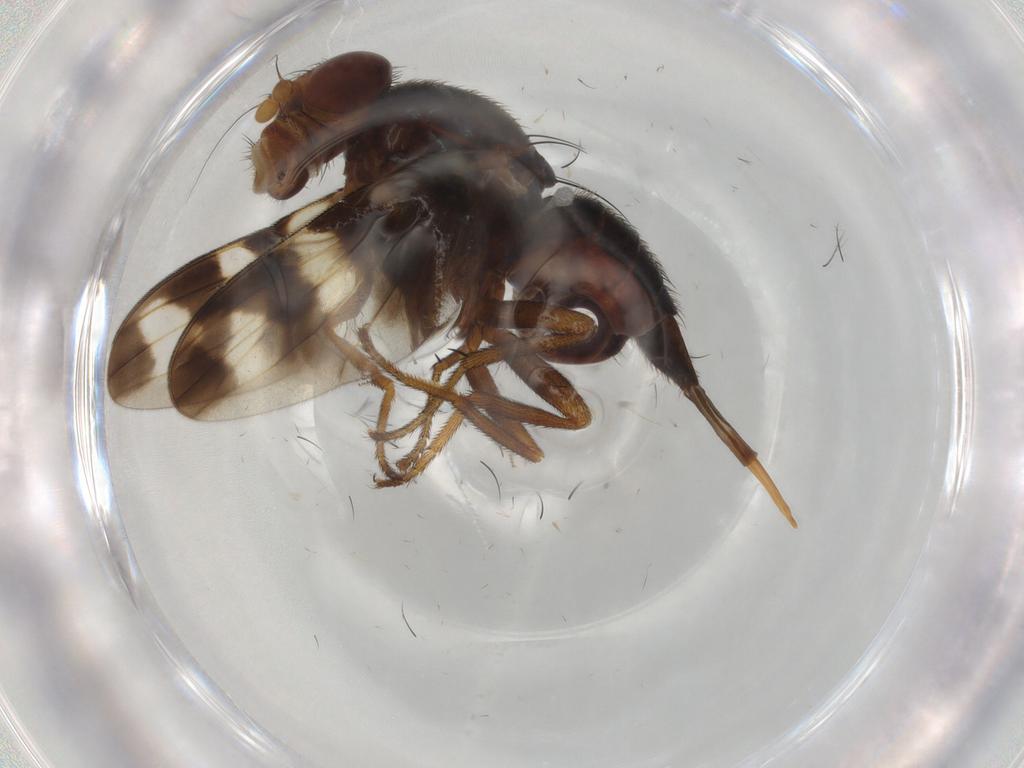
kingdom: Animalia
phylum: Arthropoda
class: Insecta
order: Diptera
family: Ulidiidae
